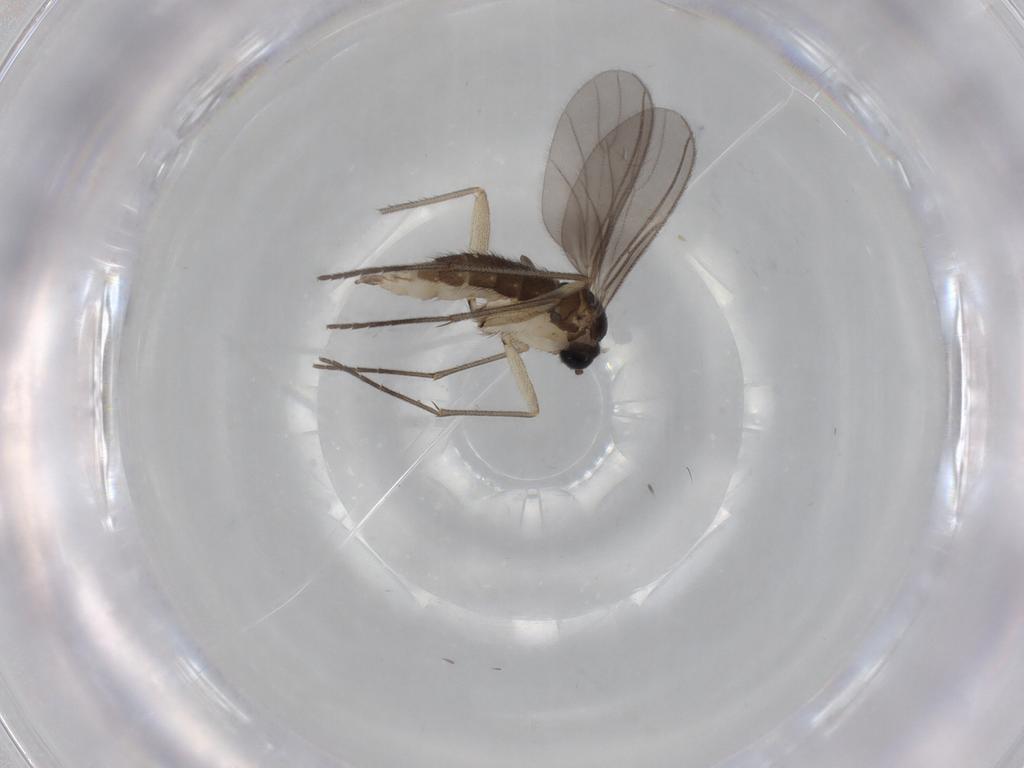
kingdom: Animalia
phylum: Arthropoda
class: Insecta
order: Diptera
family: Sciaridae
